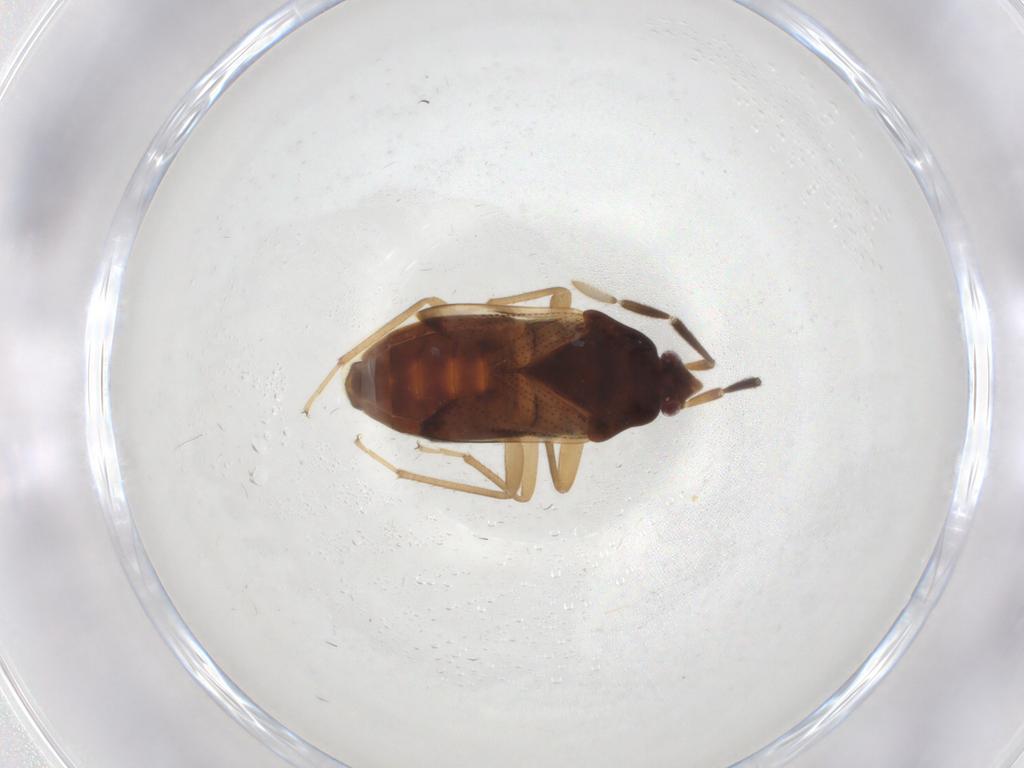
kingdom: Animalia
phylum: Arthropoda
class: Insecta
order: Hemiptera
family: Rhyparochromidae
